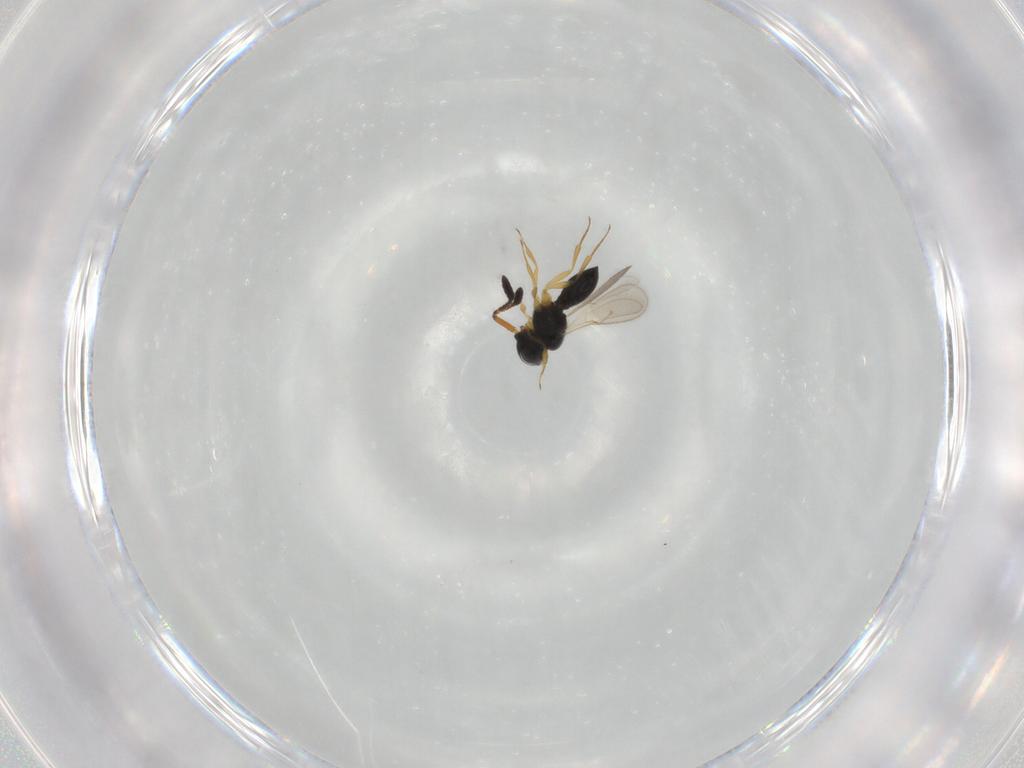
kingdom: Animalia
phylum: Arthropoda
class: Insecta
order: Hymenoptera
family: Scelionidae
